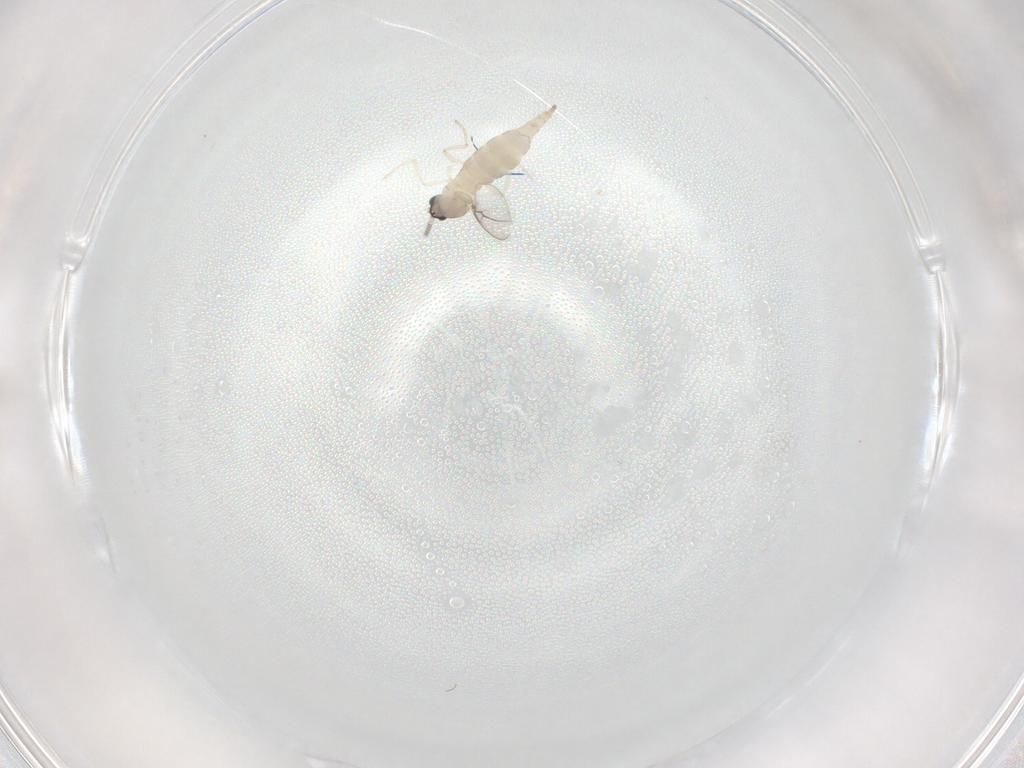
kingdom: Animalia
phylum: Arthropoda
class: Insecta
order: Diptera
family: Cecidomyiidae
